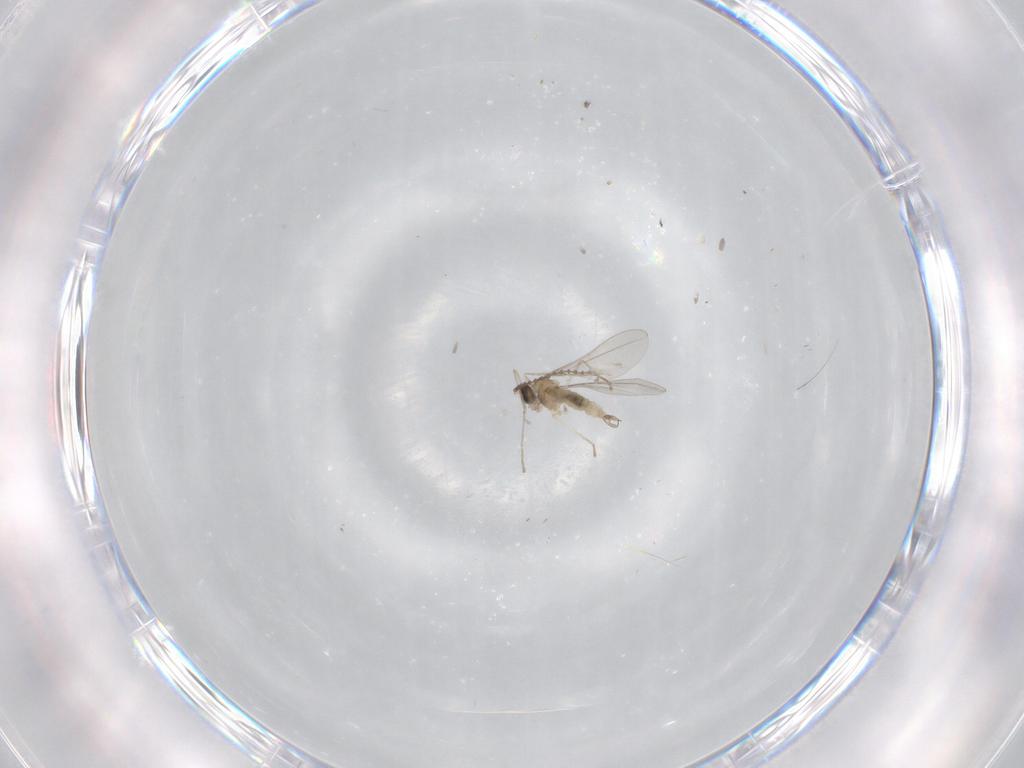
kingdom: Animalia
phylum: Arthropoda
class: Insecta
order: Diptera
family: Cecidomyiidae
